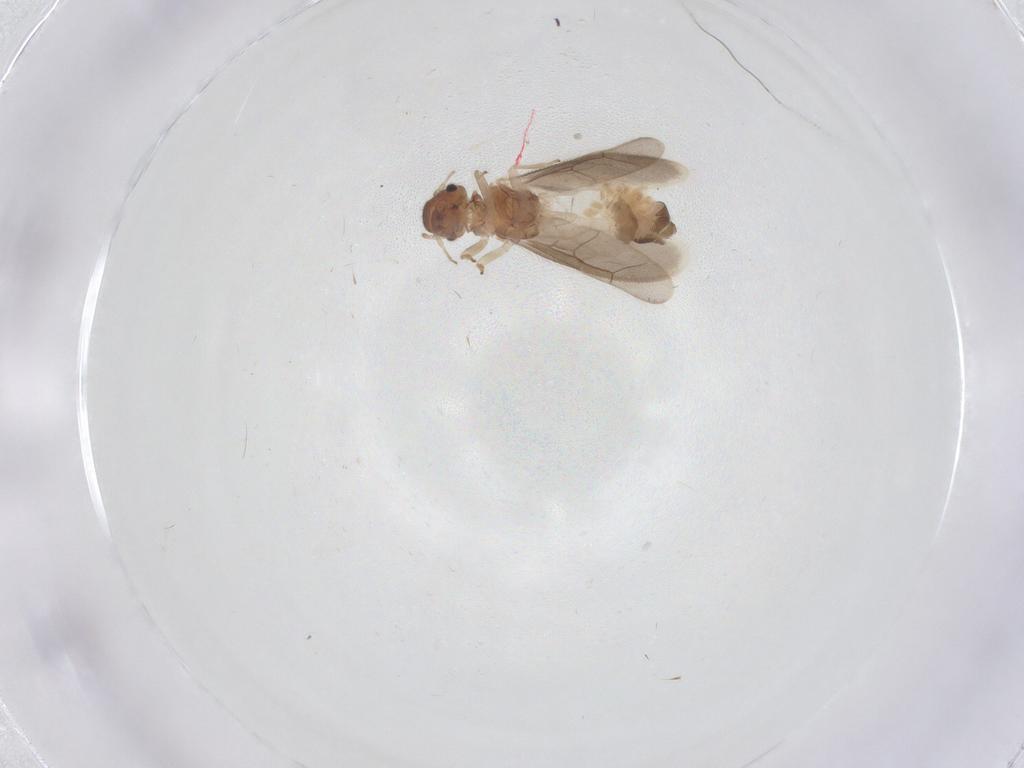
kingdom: Animalia
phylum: Arthropoda
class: Insecta
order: Psocodea
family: Archipsocidae
